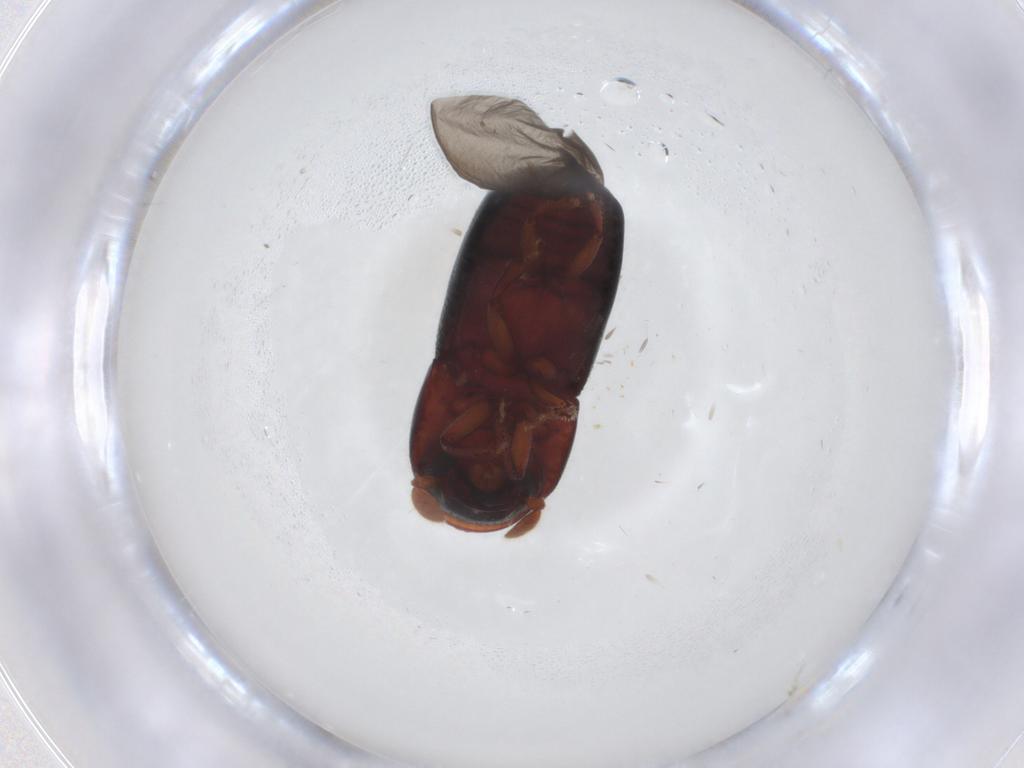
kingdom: Animalia
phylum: Arthropoda
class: Insecta
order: Coleoptera
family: Curculionidae
